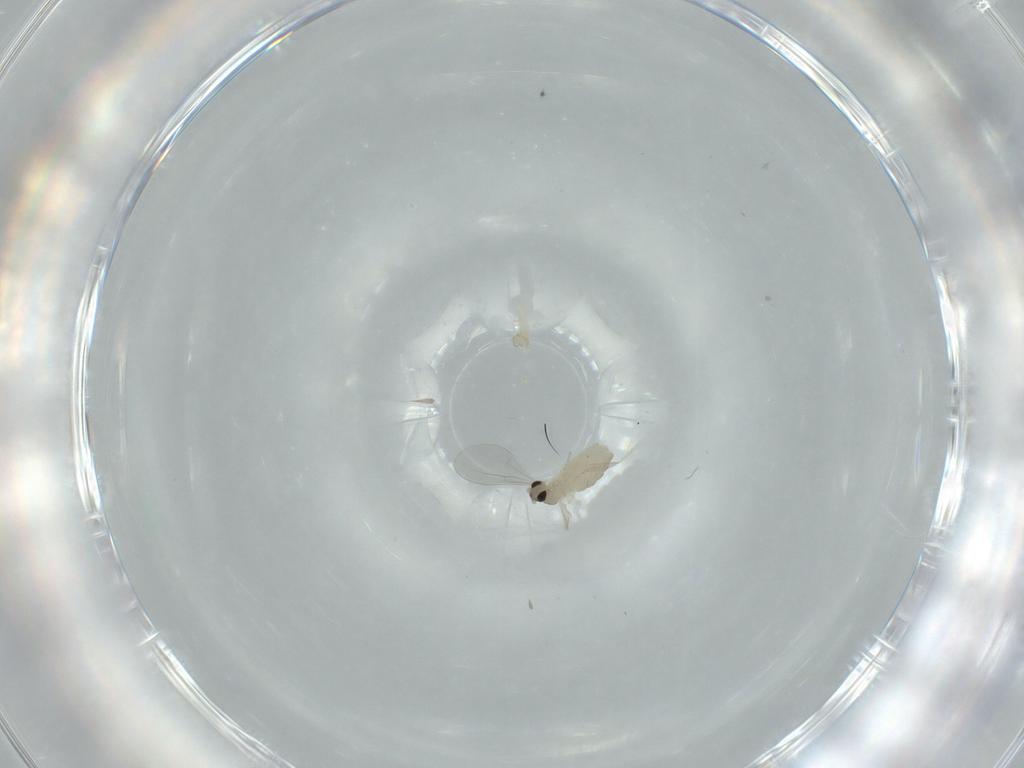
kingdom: Animalia
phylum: Arthropoda
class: Insecta
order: Diptera
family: Cecidomyiidae
